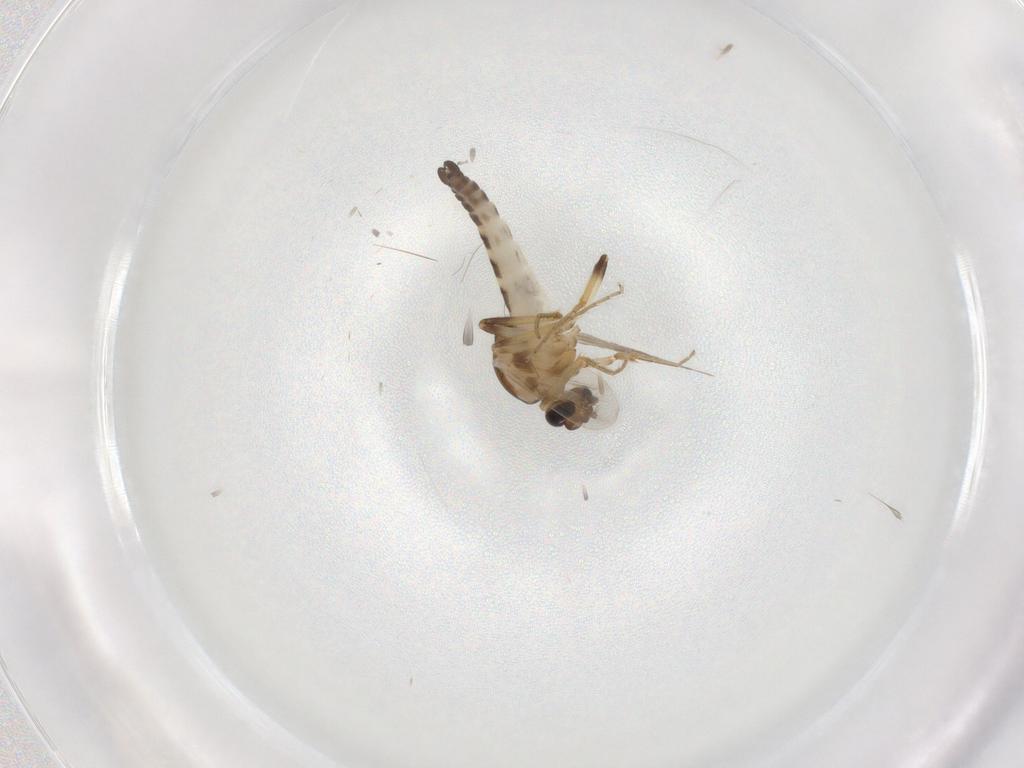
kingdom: Animalia
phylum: Arthropoda
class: Insecta
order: Diptera
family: Ceratopogonidae
